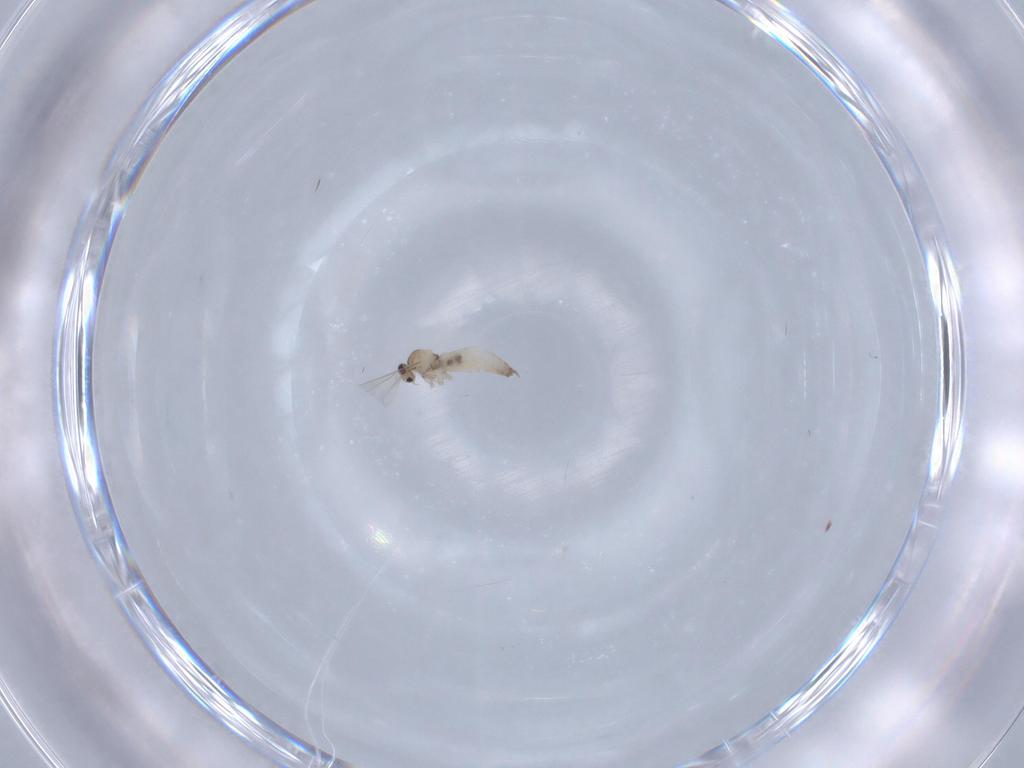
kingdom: Animalia
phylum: Arthropoda
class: Insecta
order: Diptera
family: Cecidomyiidae
